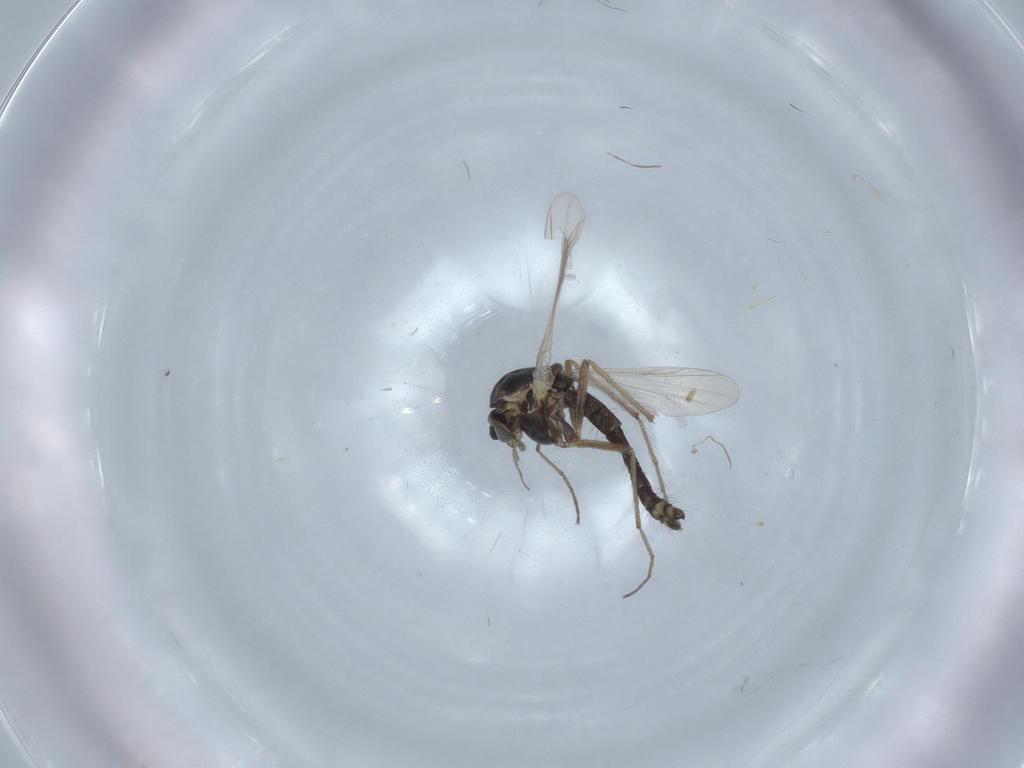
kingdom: Animalia
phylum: Arthropoda
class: Insecta
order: Diptera
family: Chironomidae
